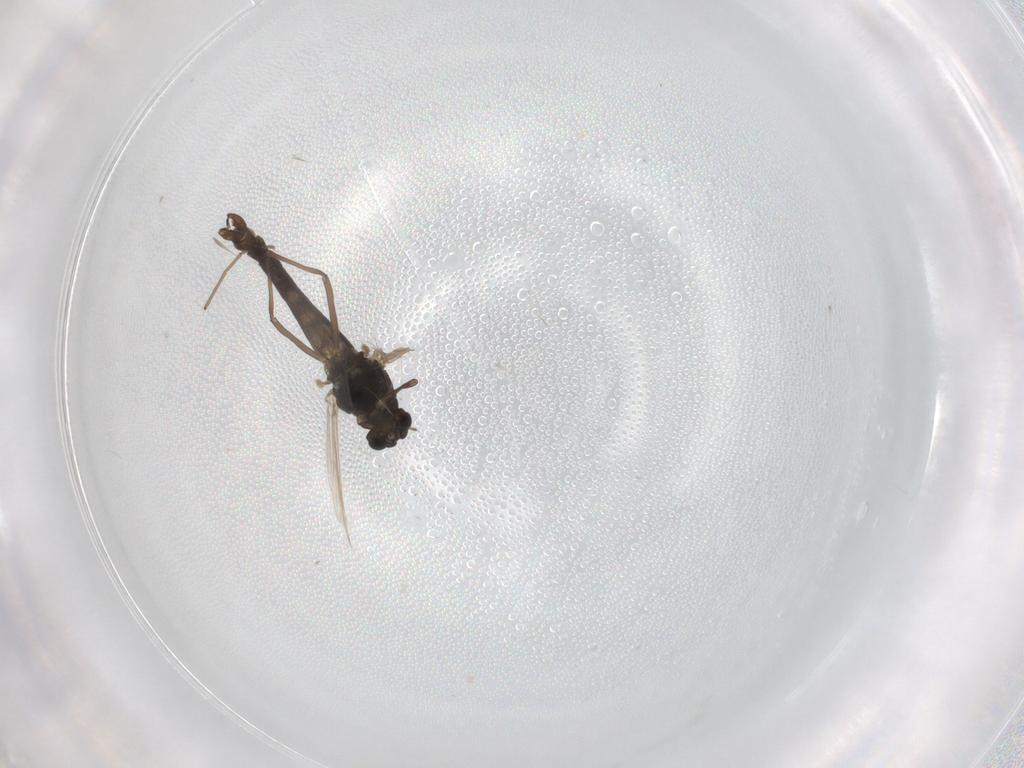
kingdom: Animalia
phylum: Arthropoda
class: Insecta
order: Diptera
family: Chironomidae
